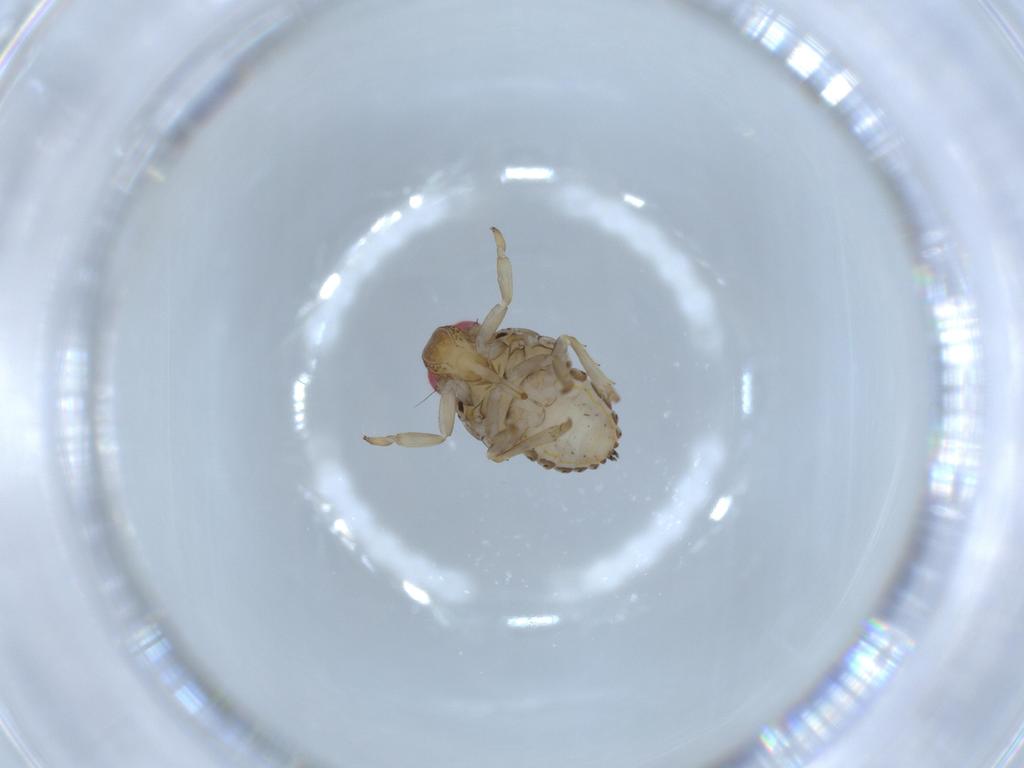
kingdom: Animalia
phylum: Arthropoda
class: Insecta
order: Hemiptera
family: Issidae
